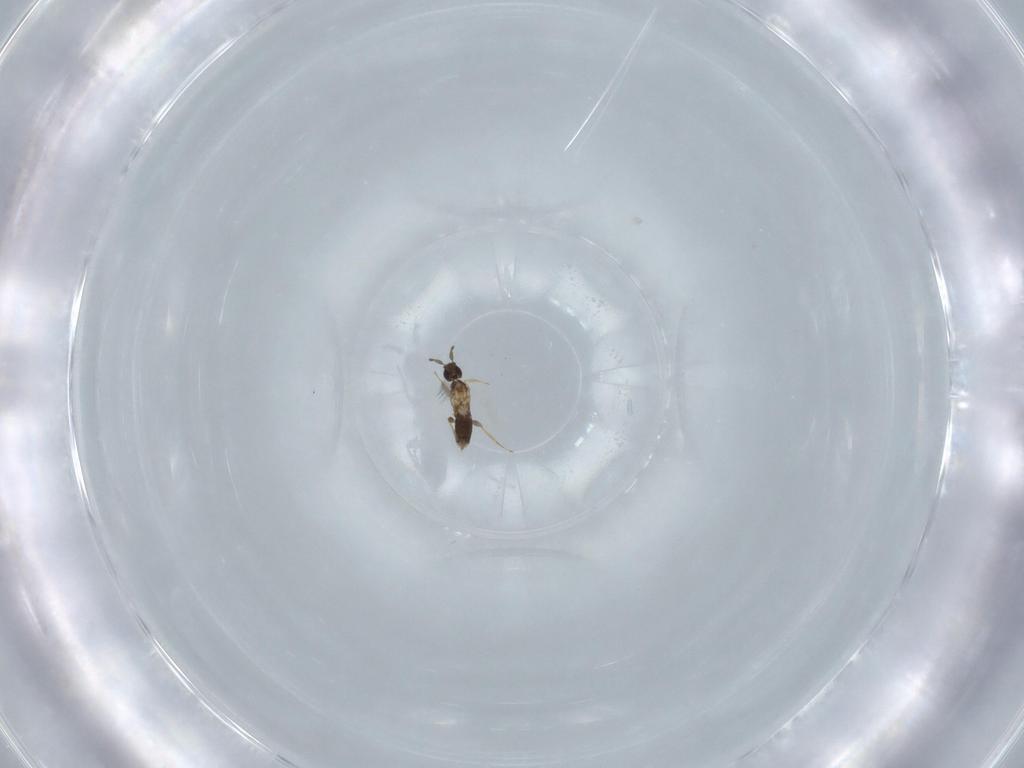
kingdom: Animalia
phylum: Arthropoda
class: Insecta
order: Hymenoptera
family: Mymaridae
